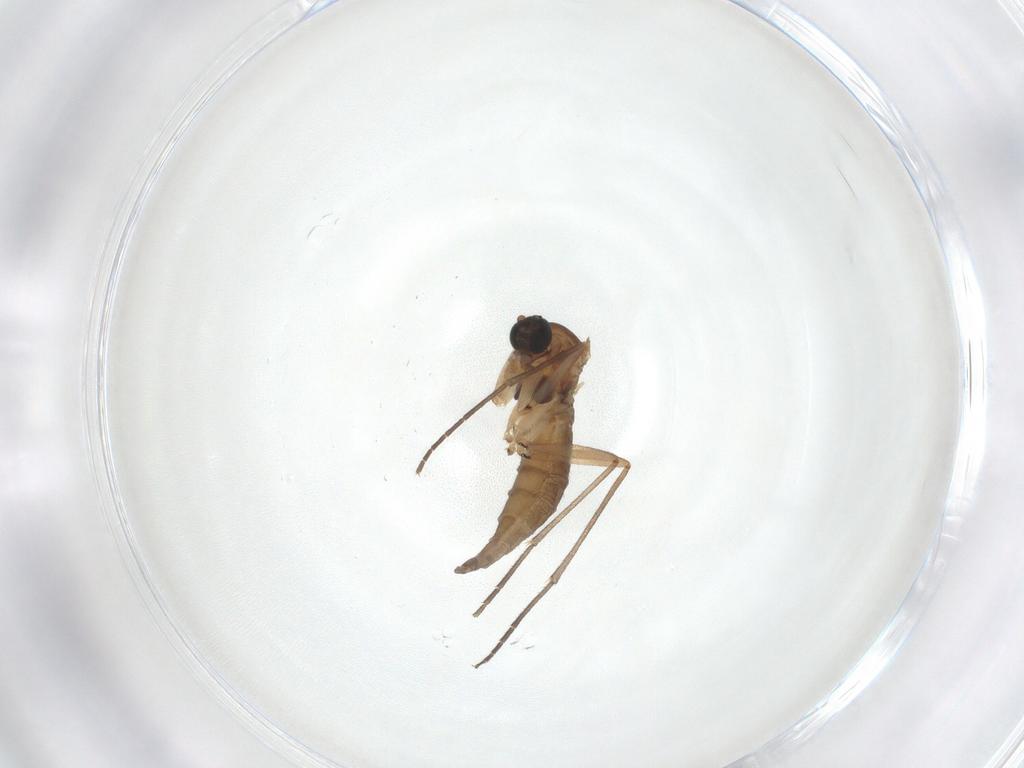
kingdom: Animalia
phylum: Arthropoda
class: Insecta
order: Diptera
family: Sciaridae
